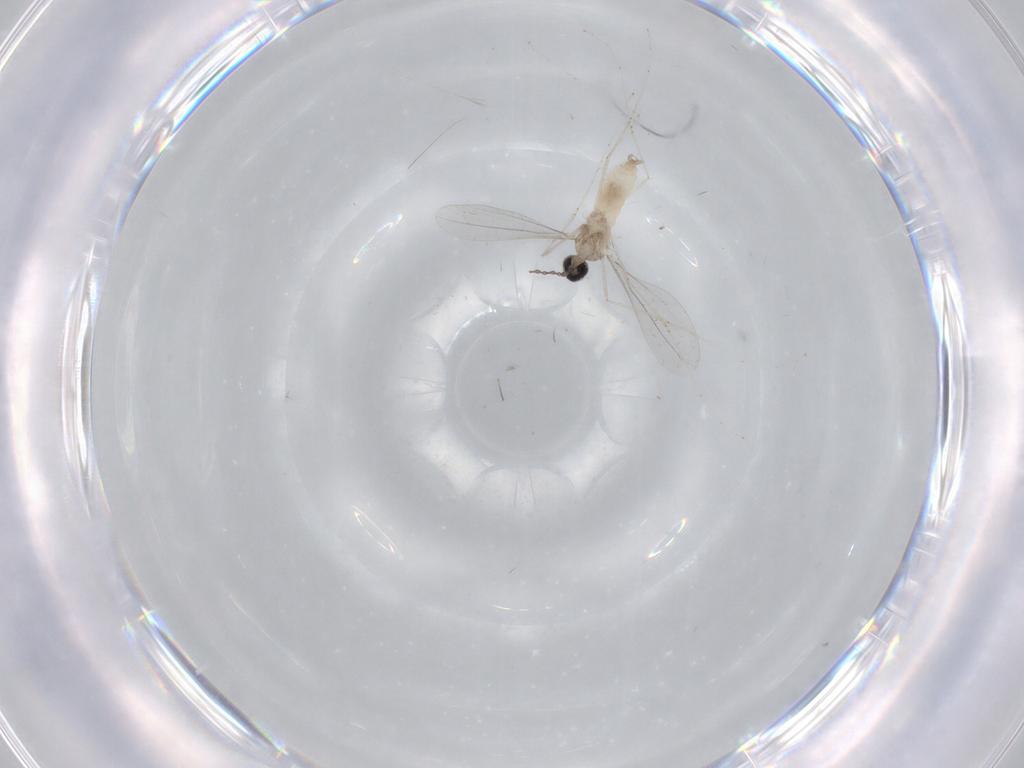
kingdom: Animalia
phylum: Arthropoda
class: Insecta
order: Diptera
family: Cecidomyiidae
